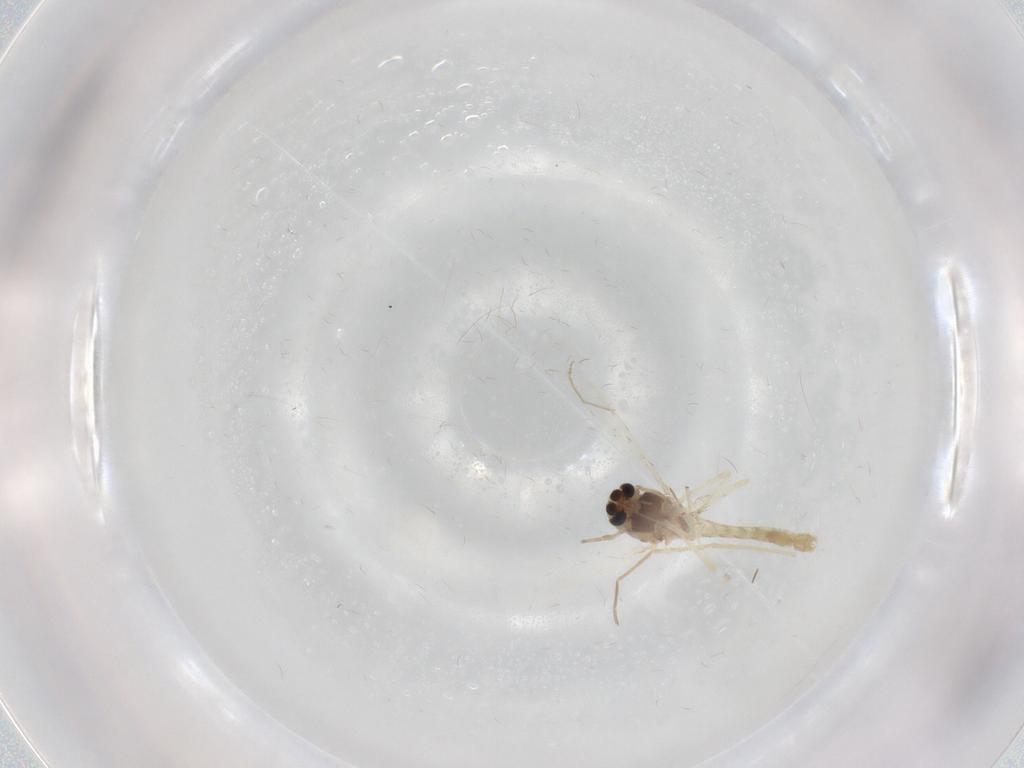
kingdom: Animalia
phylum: Arthropoda
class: Insecta
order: Diptera
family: Chironomidae
